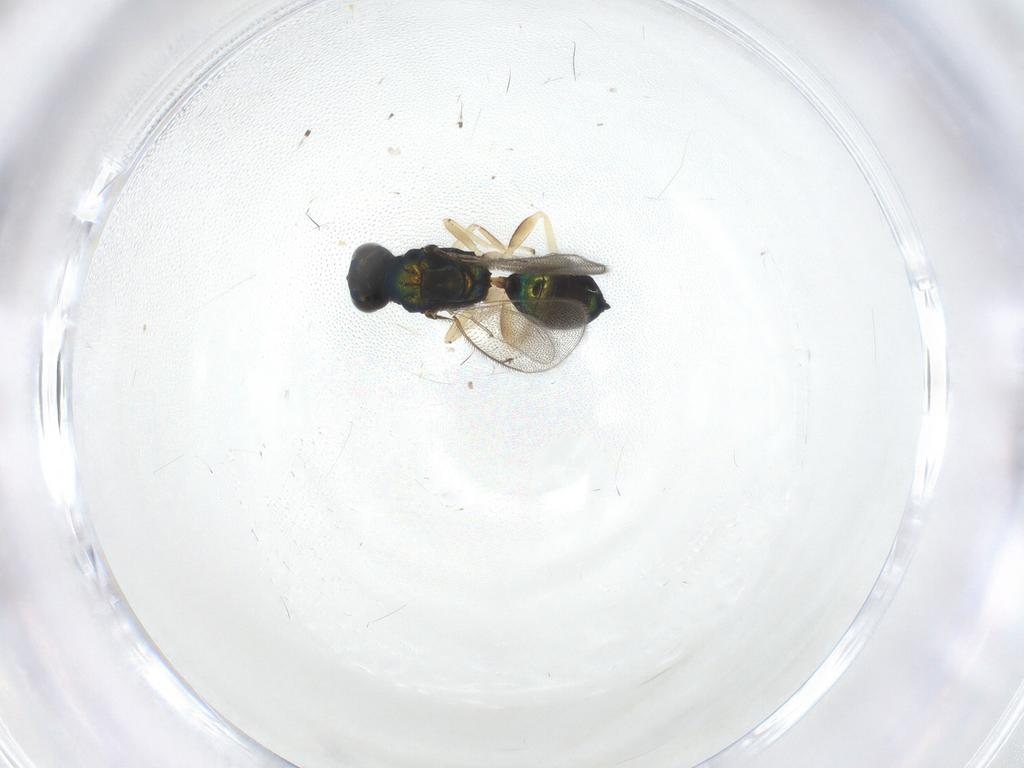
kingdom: Animalia
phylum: Arthropoda
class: Insecta
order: Hymenoptera
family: Eulophidae
